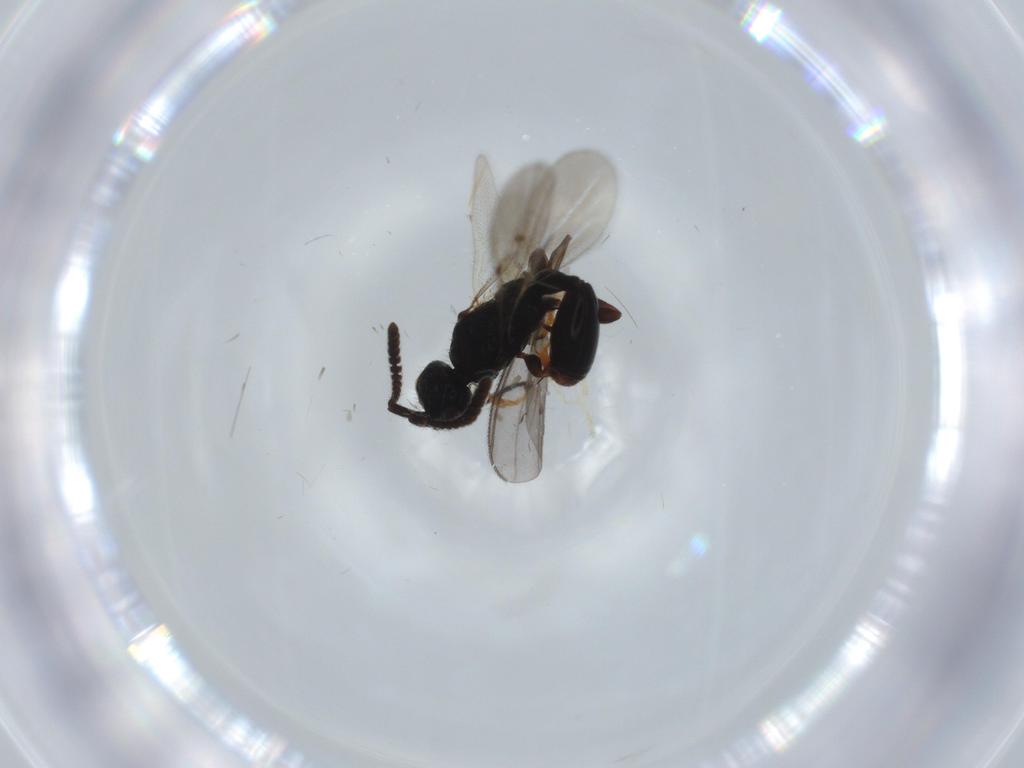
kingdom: Animalia
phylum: Arthropoda
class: Insecta
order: Hymenoptera
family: Diapriidae
